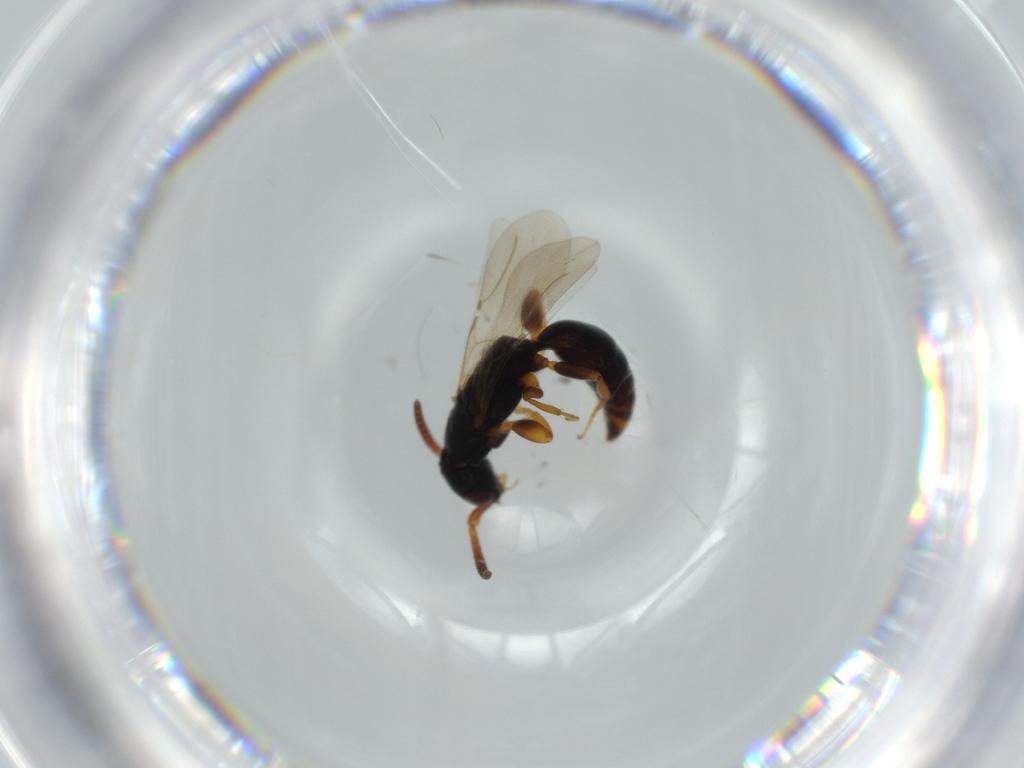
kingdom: Animalia
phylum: Arthropoda
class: Insecta
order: Hymenoptera
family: Bethylidae
